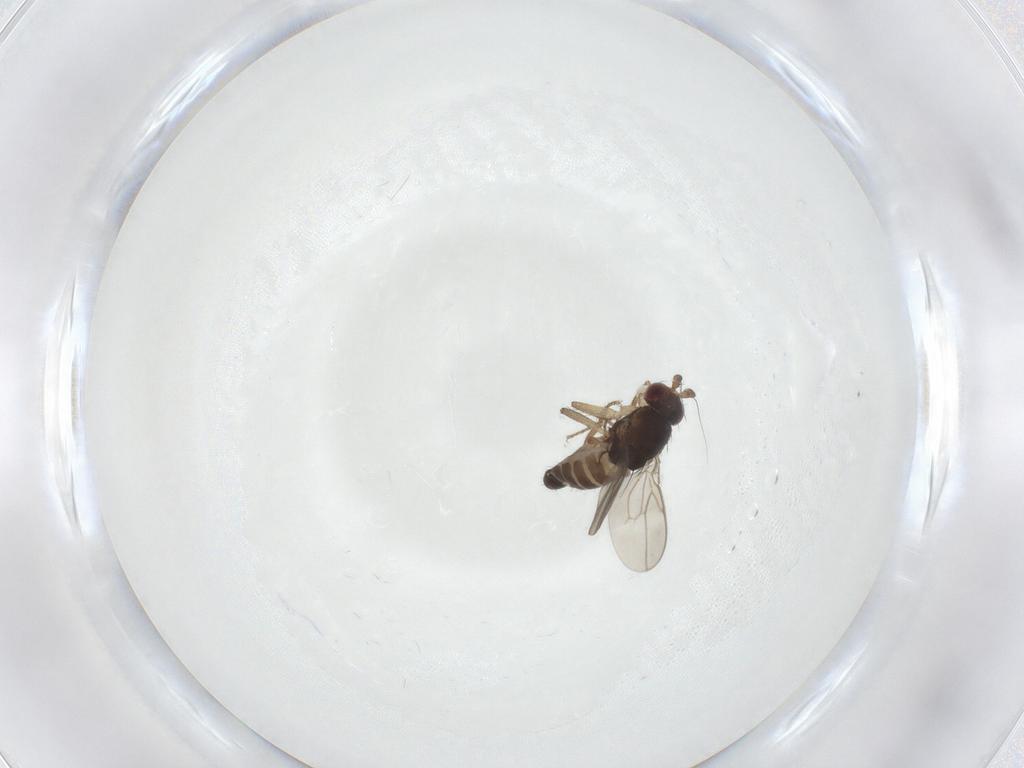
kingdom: Animalia
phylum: Arthropoda
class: Insecta
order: Diptera
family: Sphaeroceridae
